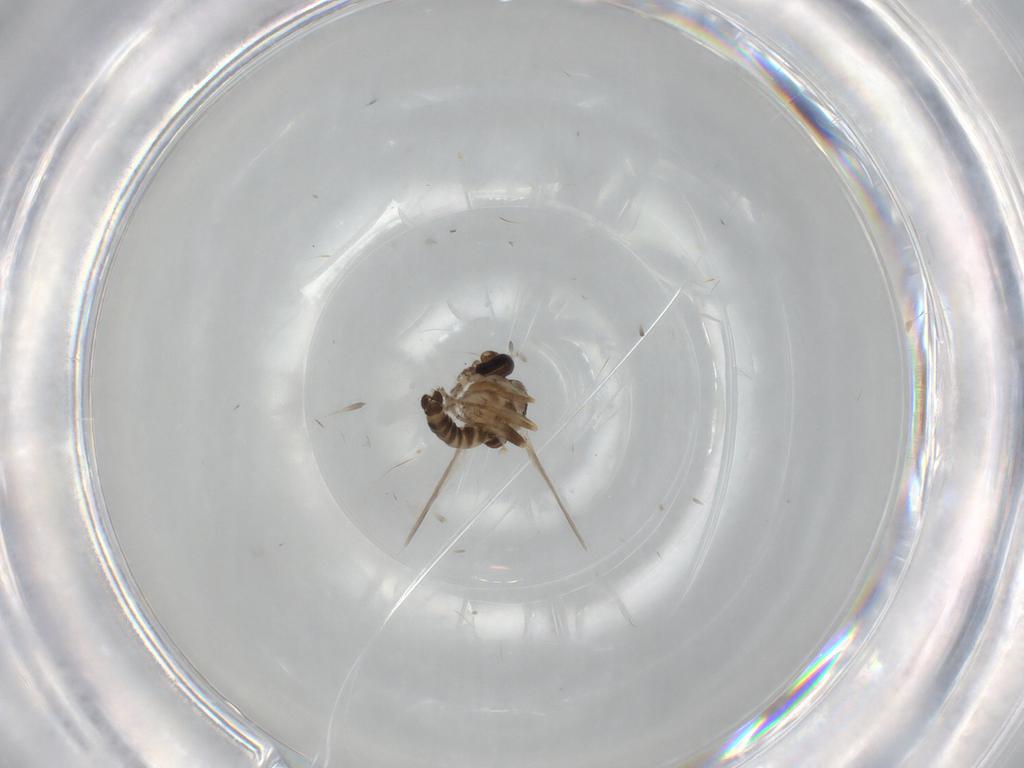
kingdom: Animalia
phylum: Arthropoda
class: Insecta
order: Diptera
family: Ceratopogonidae
